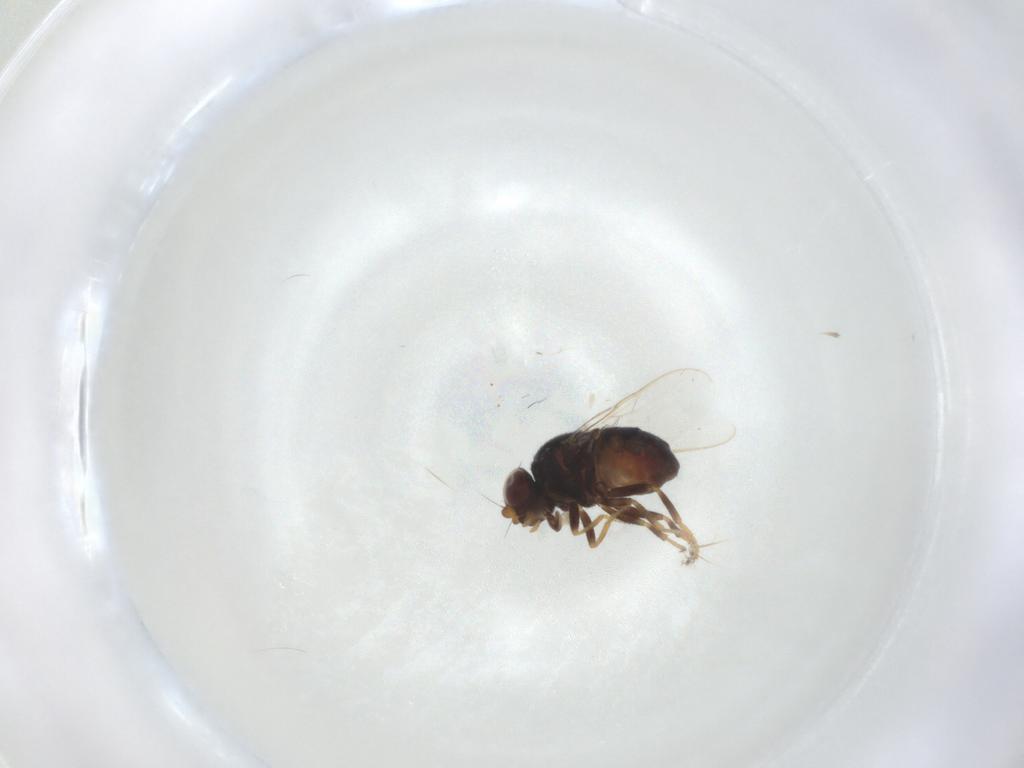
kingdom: Animalia
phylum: Arthropoda
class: Insecta
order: Diptera
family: Chloropidae
